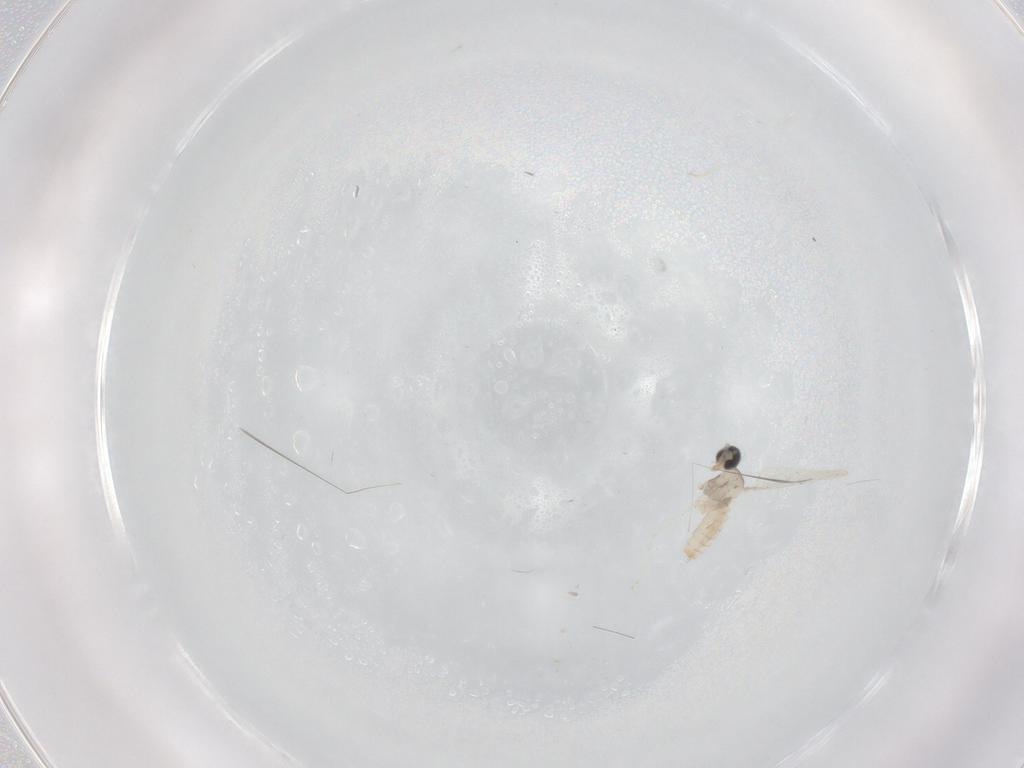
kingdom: Animalia
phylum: Arthropoda
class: Insecta
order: Diptera
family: Cecidomyiidae
